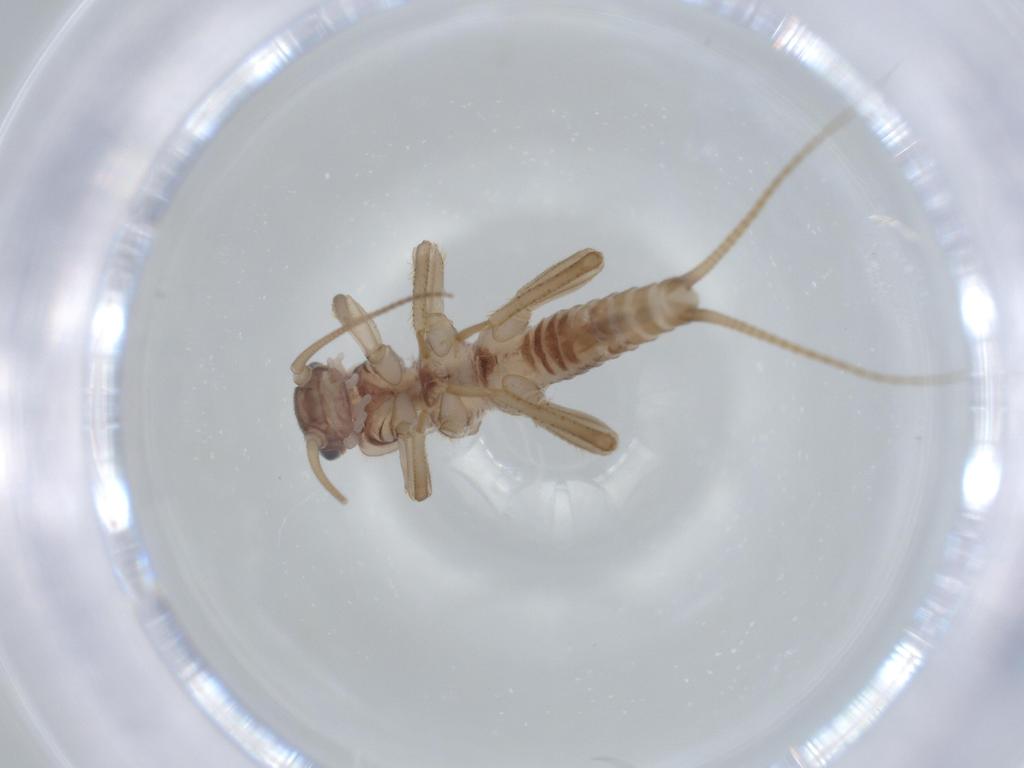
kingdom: Animalia
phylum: Arthropoda
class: Insecta
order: Plecoptera
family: Nemouridae
